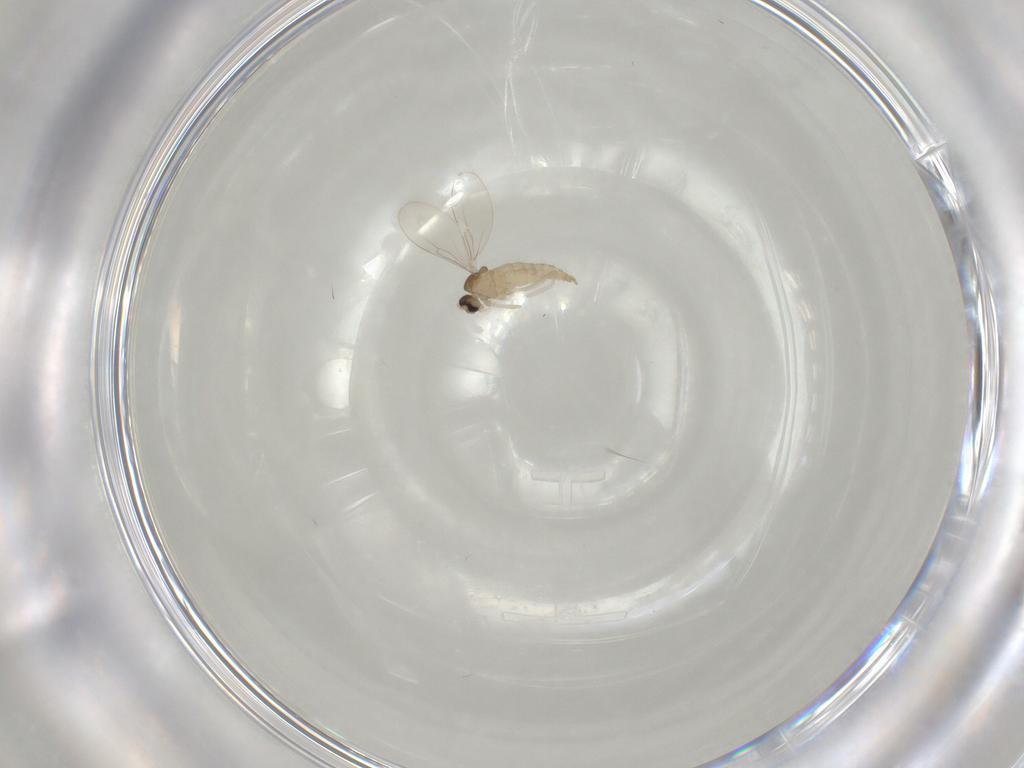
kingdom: Animalia
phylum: Arthropoda
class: Insecta
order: Diptera
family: Cecidomyiidae
